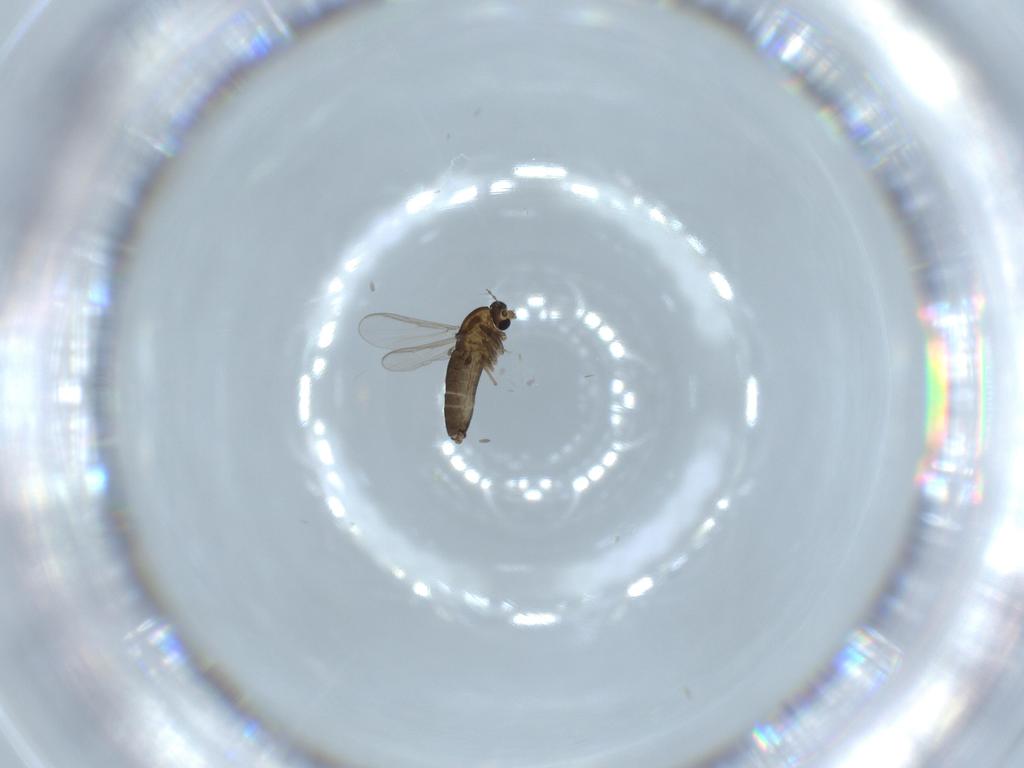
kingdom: Animalia
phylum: Arthropoda
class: Insecta
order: Diptera
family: Chironomidae
